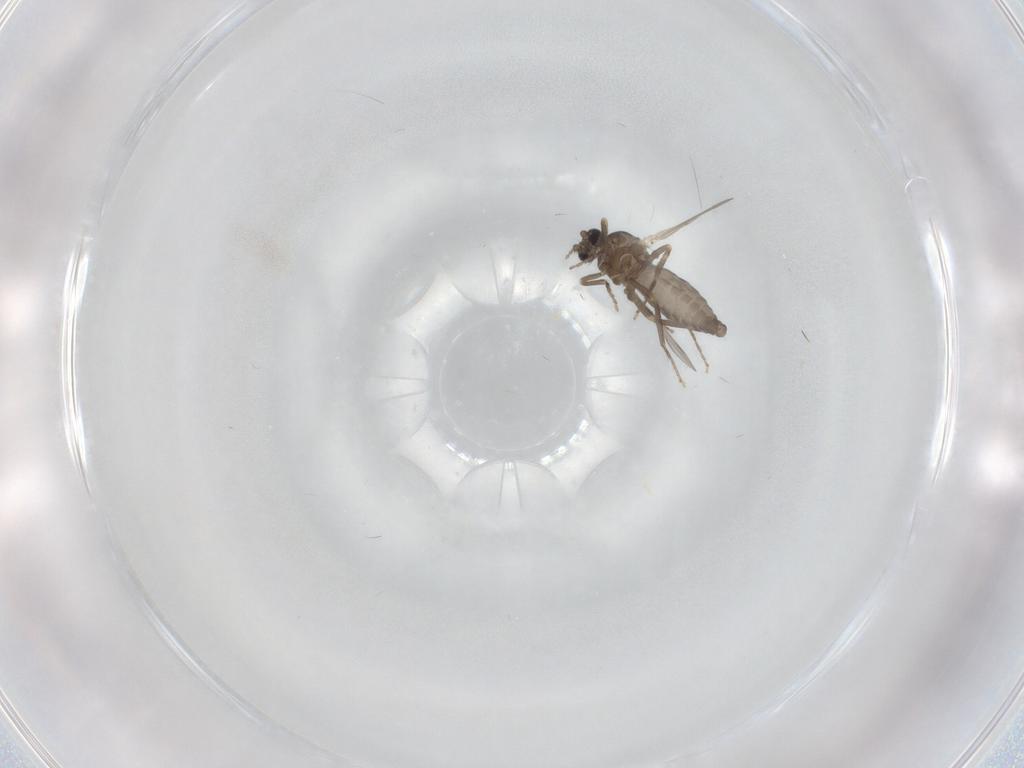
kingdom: Animalia
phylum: Arthropoda
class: Insecta
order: Diptera
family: Ceratopogonidae
